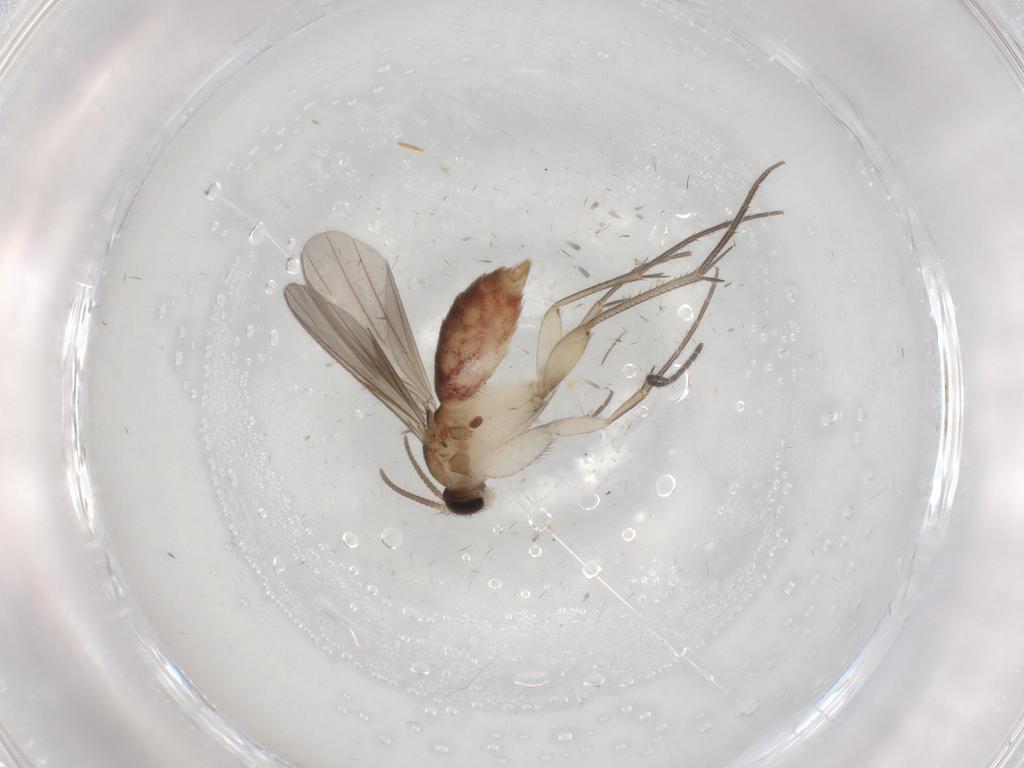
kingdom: Animalia
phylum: Arthropoda
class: Insecta
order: Diptera
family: Mycetophilidae
